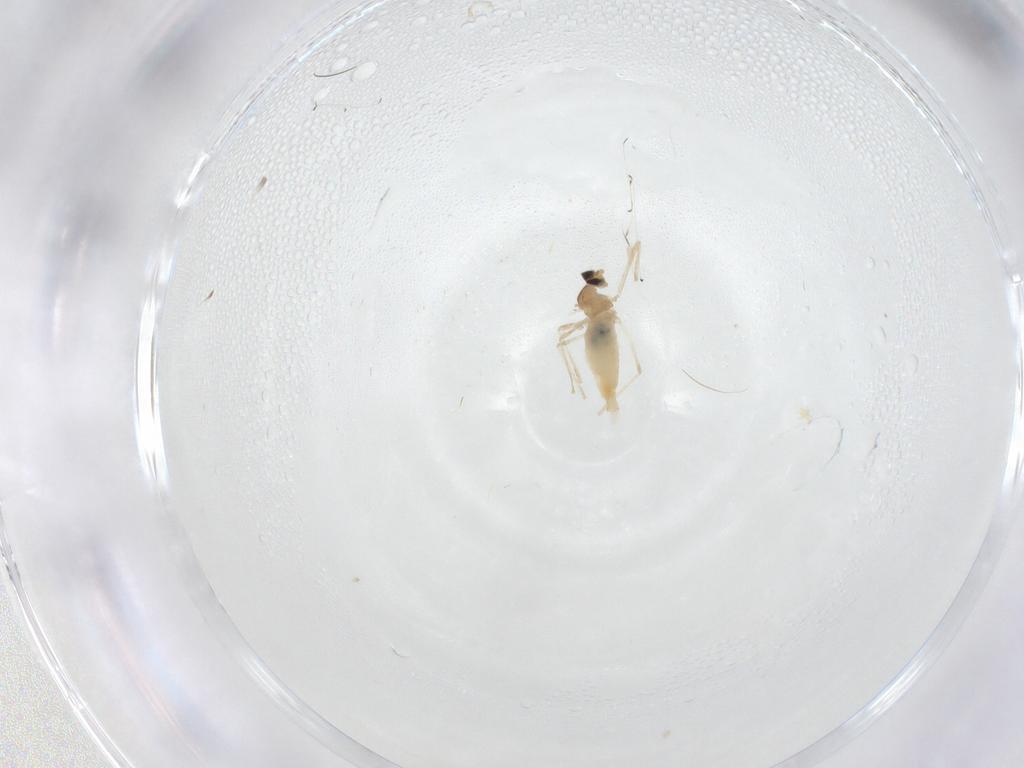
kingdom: Animalia
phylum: Arthropoda
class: Insecta
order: Diptera
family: Cecidomyiidae
